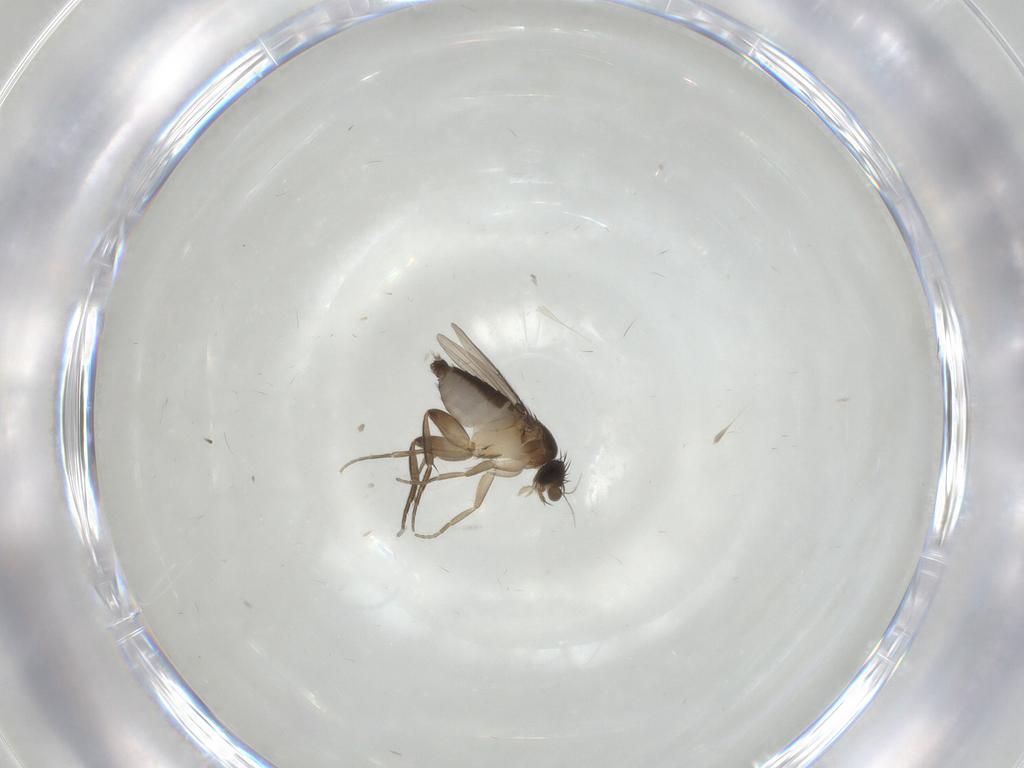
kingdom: Animalia
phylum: Arthropoda
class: Insecta
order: Diptera
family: Phoridae
